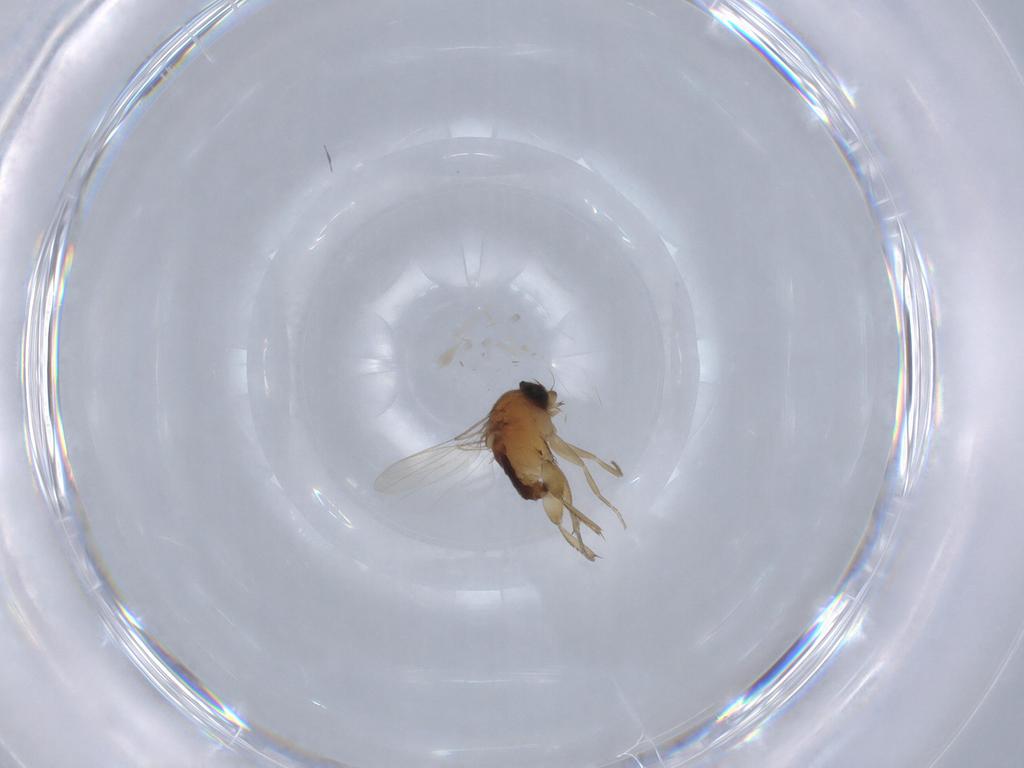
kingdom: Animalia
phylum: Arthropoda
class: Insecta
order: Diptera
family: Phoridae
